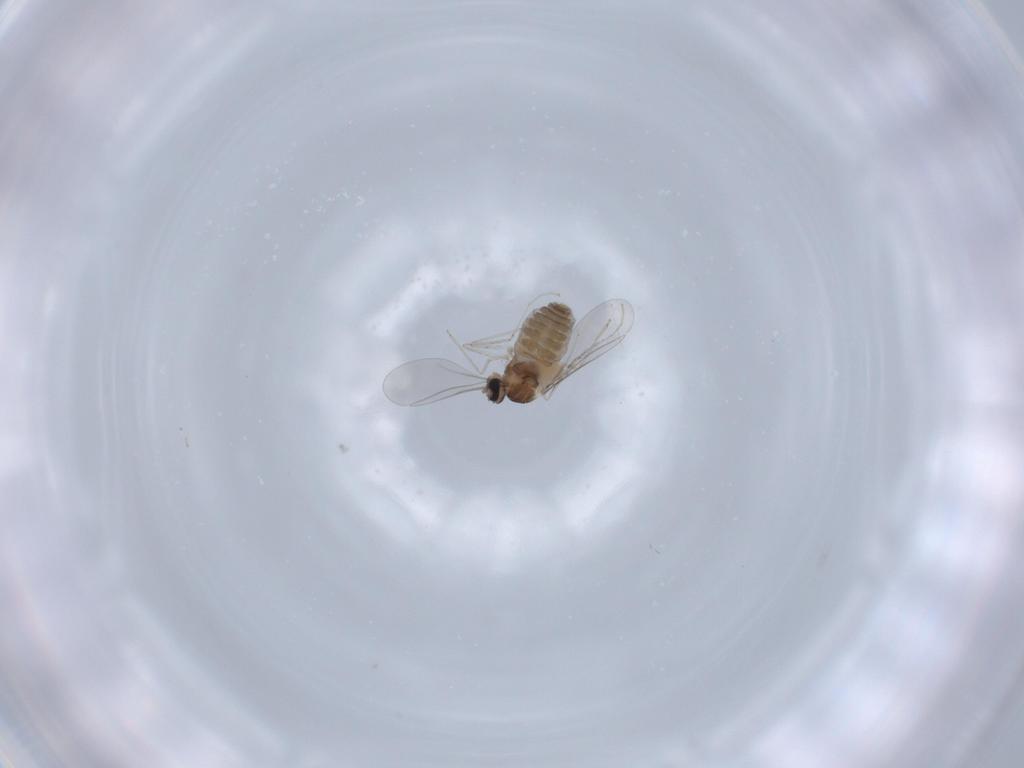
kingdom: Animalia
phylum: Arthropoda
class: Insecta
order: Diptera
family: Cecidomyiidae
